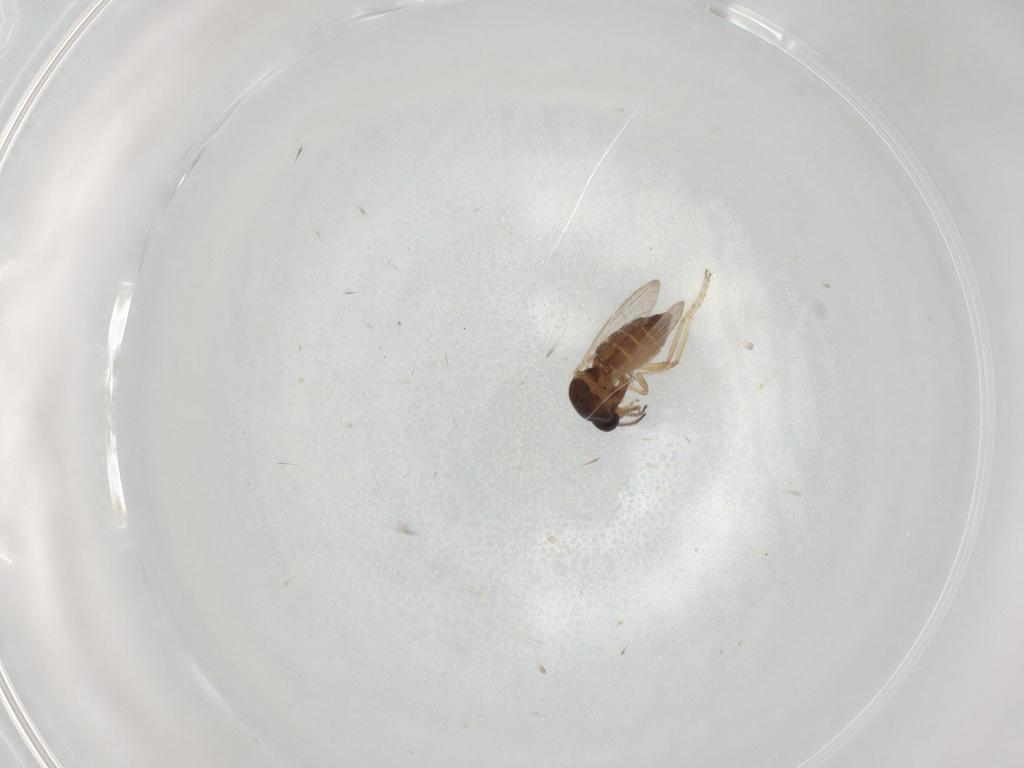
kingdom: Animalia
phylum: Arthropoda
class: Insecta
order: Diptera
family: Ceratopogonidae
